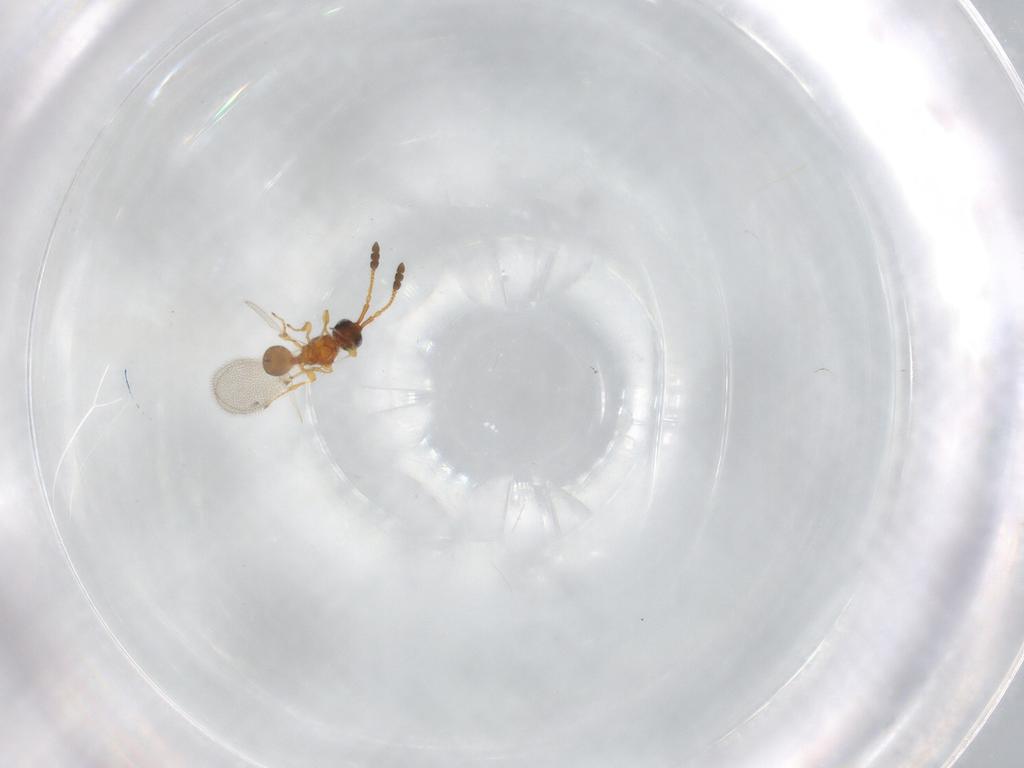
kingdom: Animalia
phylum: Arthropoda
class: Insecta
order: Hymenoptera
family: Diapriidae
